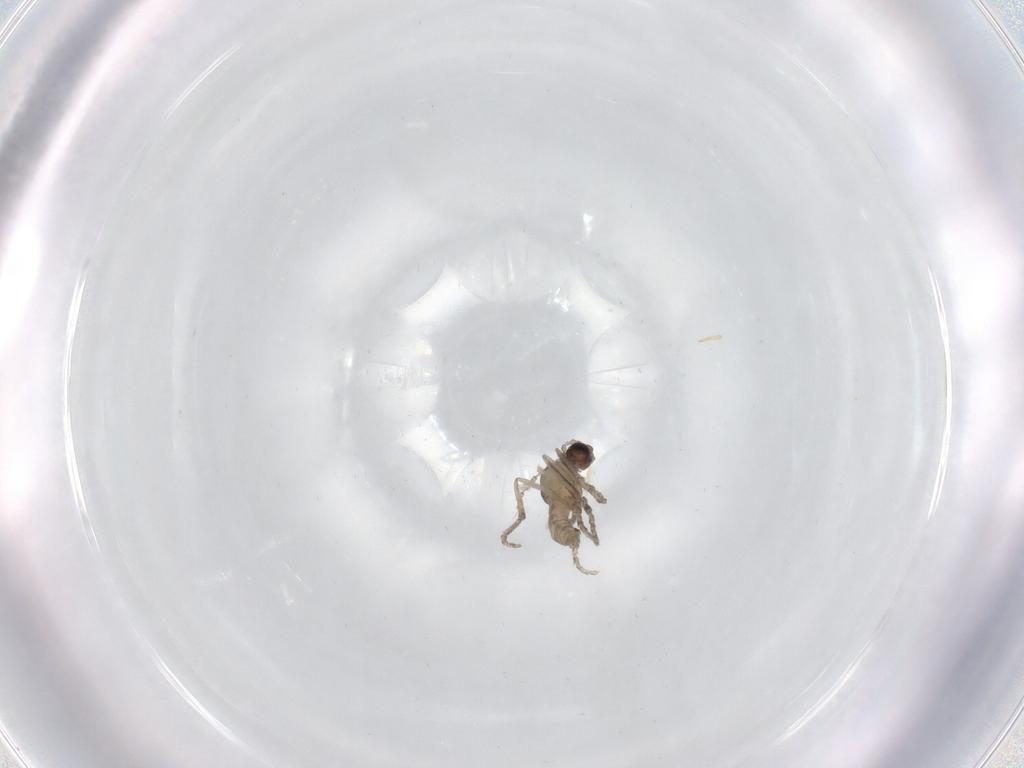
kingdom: Animalia
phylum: Arthropoda
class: Insecta
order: Diptera
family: Cecidomyiidae
